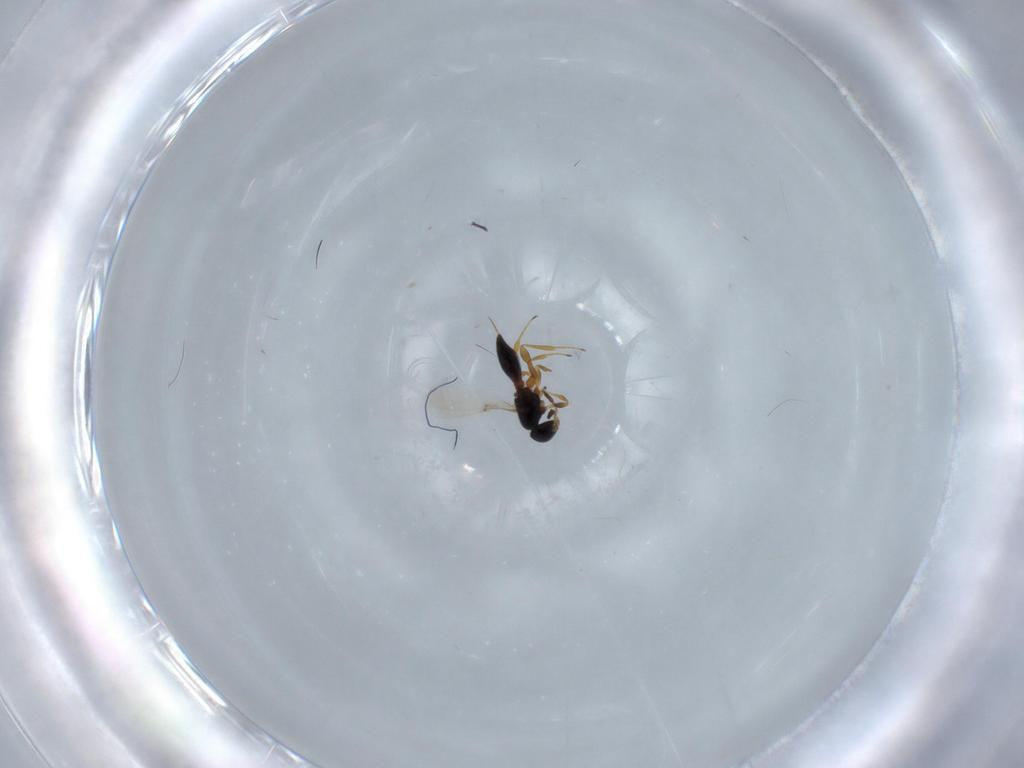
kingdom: Animalia
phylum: Arthropoda
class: Insecta
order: Hymenoptera
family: Platygastridae
